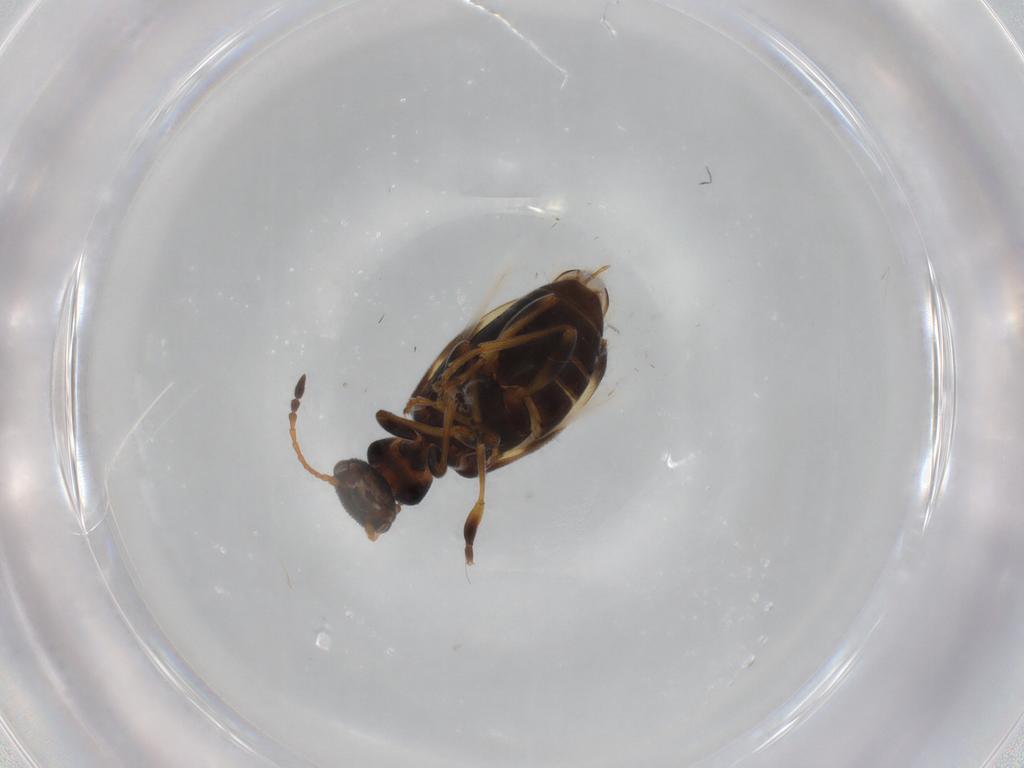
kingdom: Animalia
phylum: Arthropoda
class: Insecta
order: Coleoptera
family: Anthicidae
